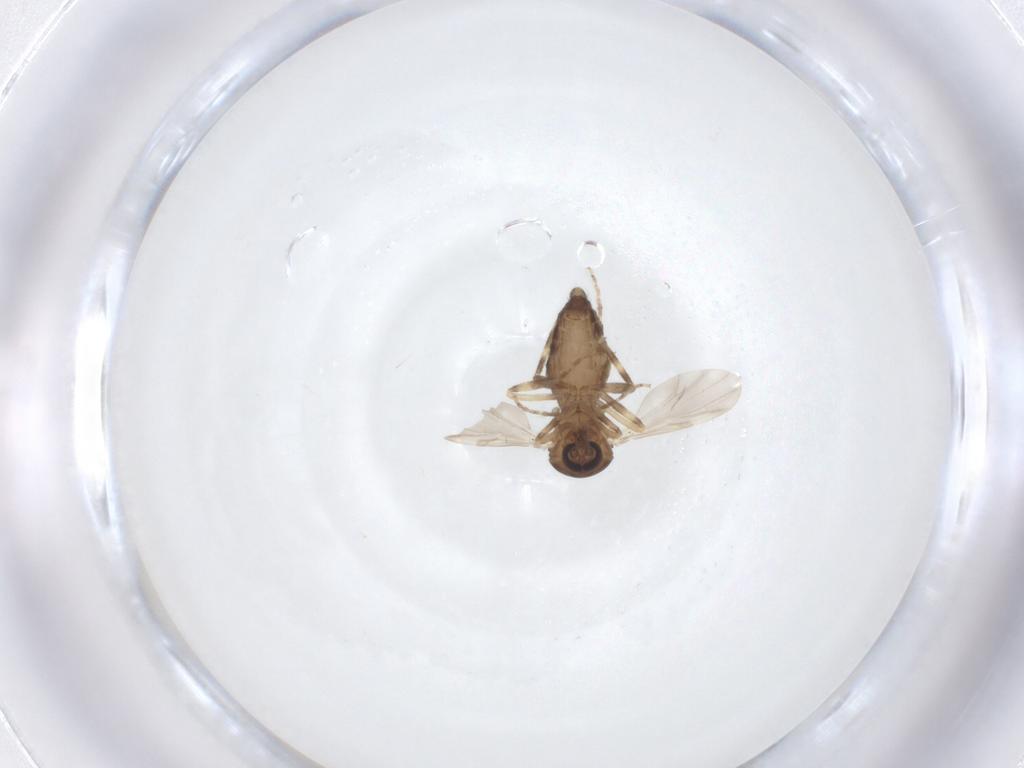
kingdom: Animalia
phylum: Arthropoda
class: Insecta
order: Diptera
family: Ceratopogonidae
